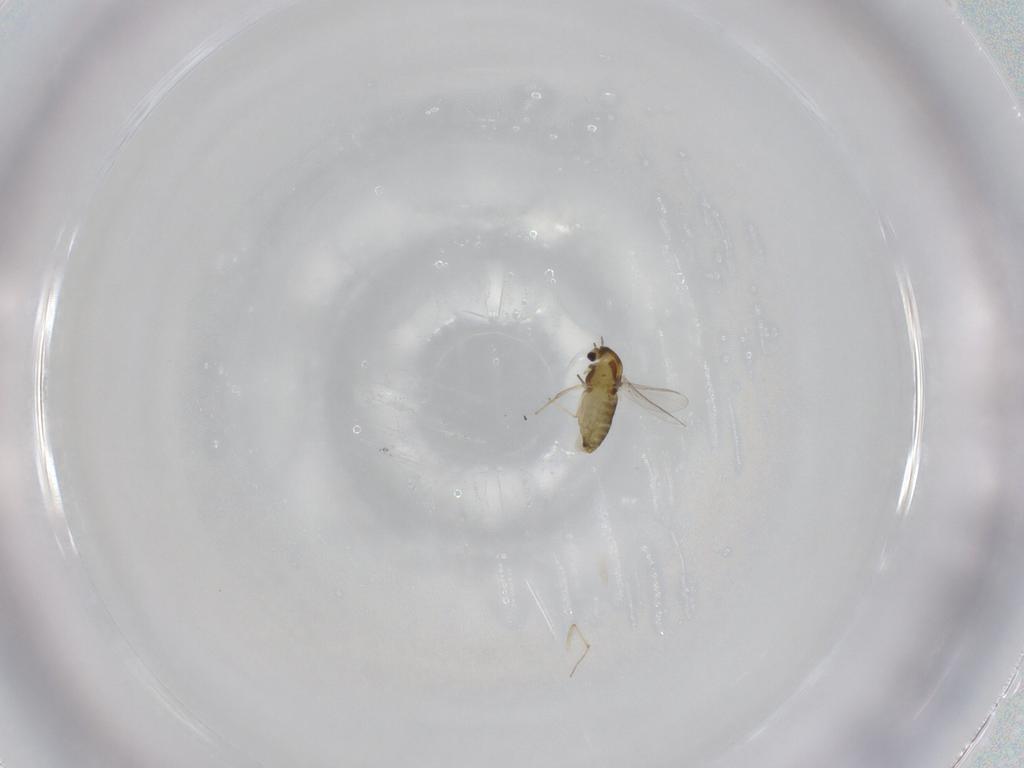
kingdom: Animalia
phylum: Arthropoda
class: Insecta
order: Diptera
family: Chironomidae
